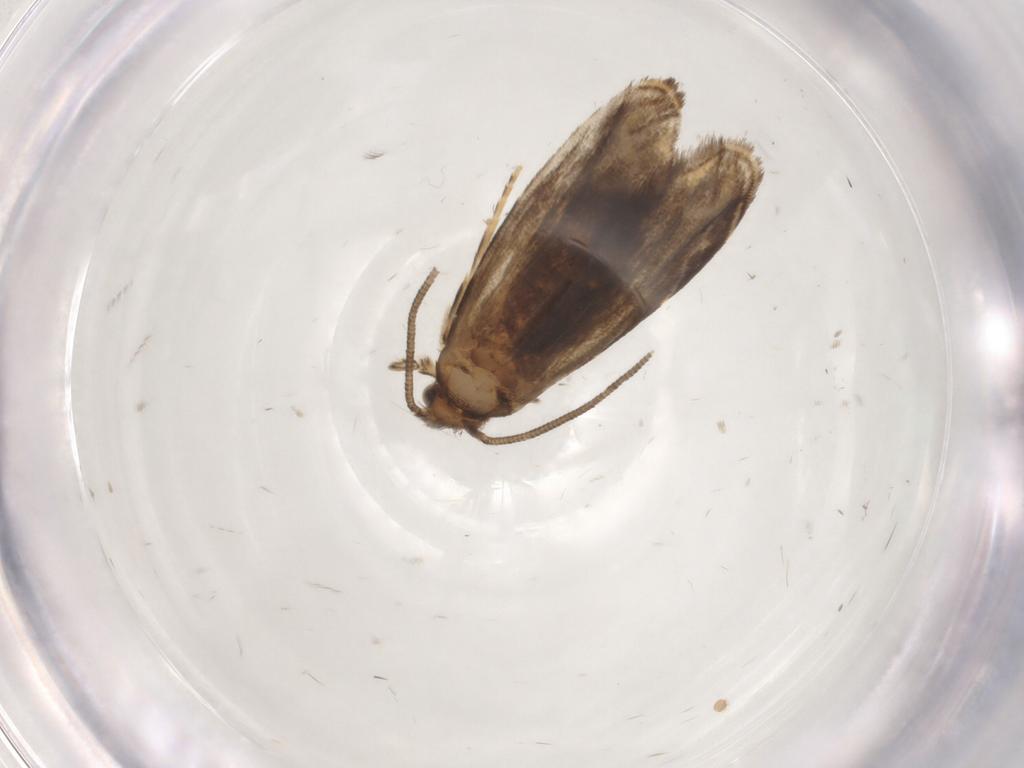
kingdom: Animalia
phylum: Arthropoda
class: Insecta
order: Lepidoptera
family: Dryadaulidae
